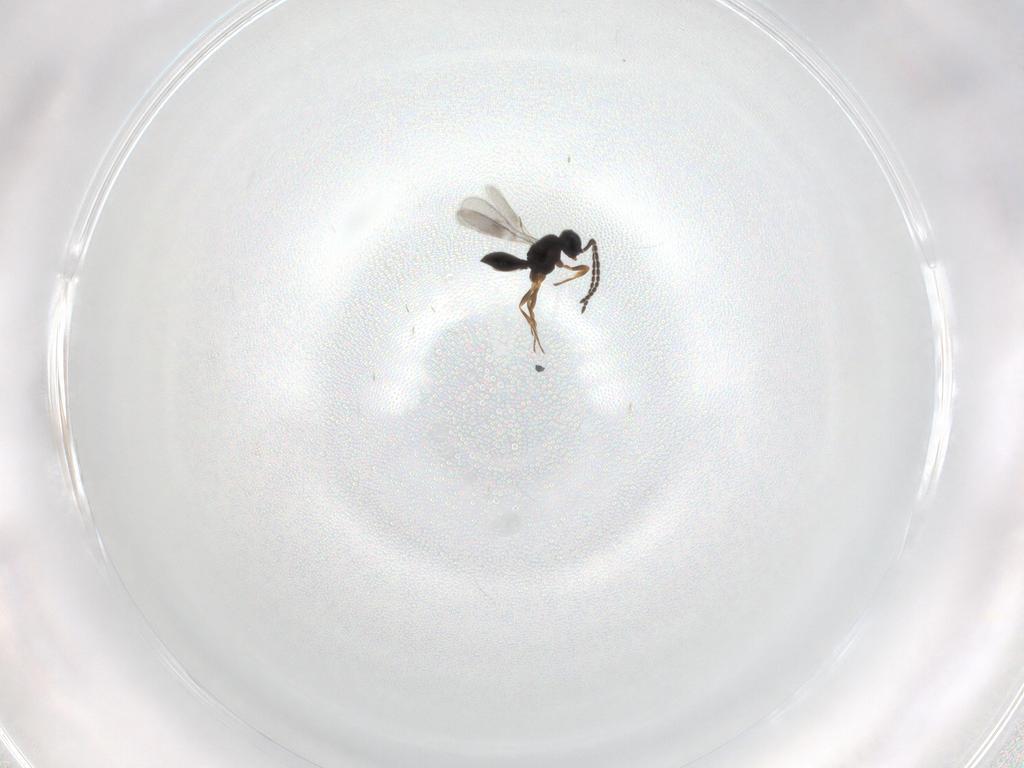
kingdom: Animalia
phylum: Arthropoda
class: Insecta
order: Hymenoptera
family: Scelionidae
